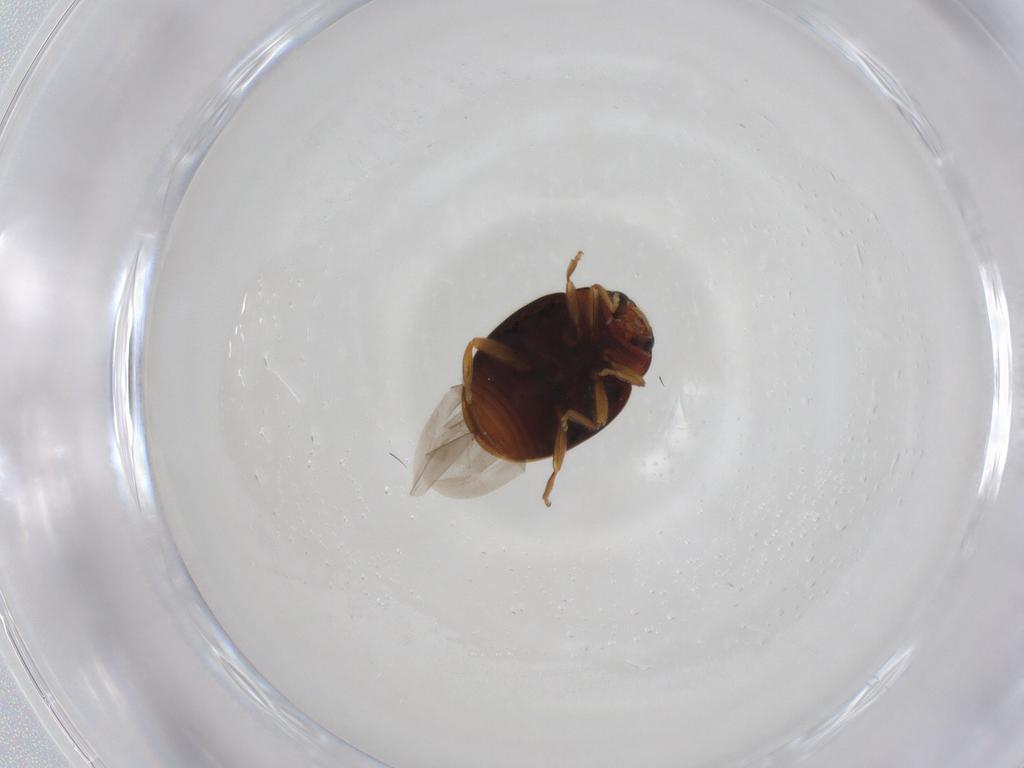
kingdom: Animalia
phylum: Arthropoda
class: Insecta
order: Coleoptera
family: Coccinellidae
